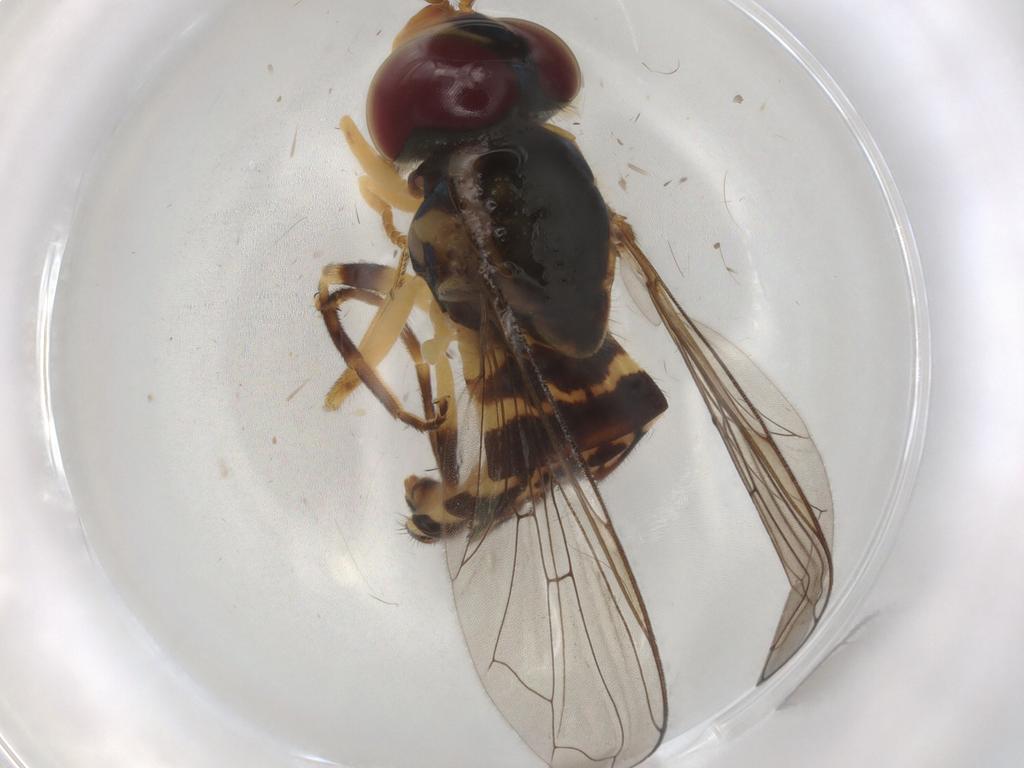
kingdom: Animalia
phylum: Arthropoda
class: Insecta
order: Diptera
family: Syrphidae
